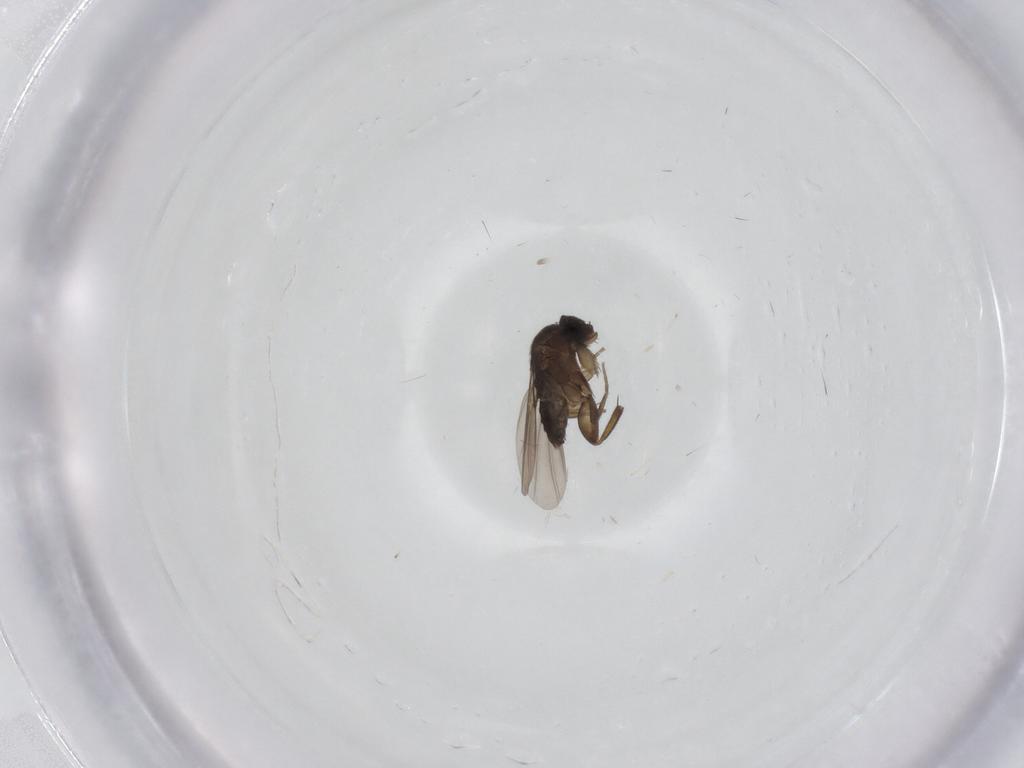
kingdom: Animalia
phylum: Arthropoda
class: Insecta
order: Diptera
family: Phoridae
